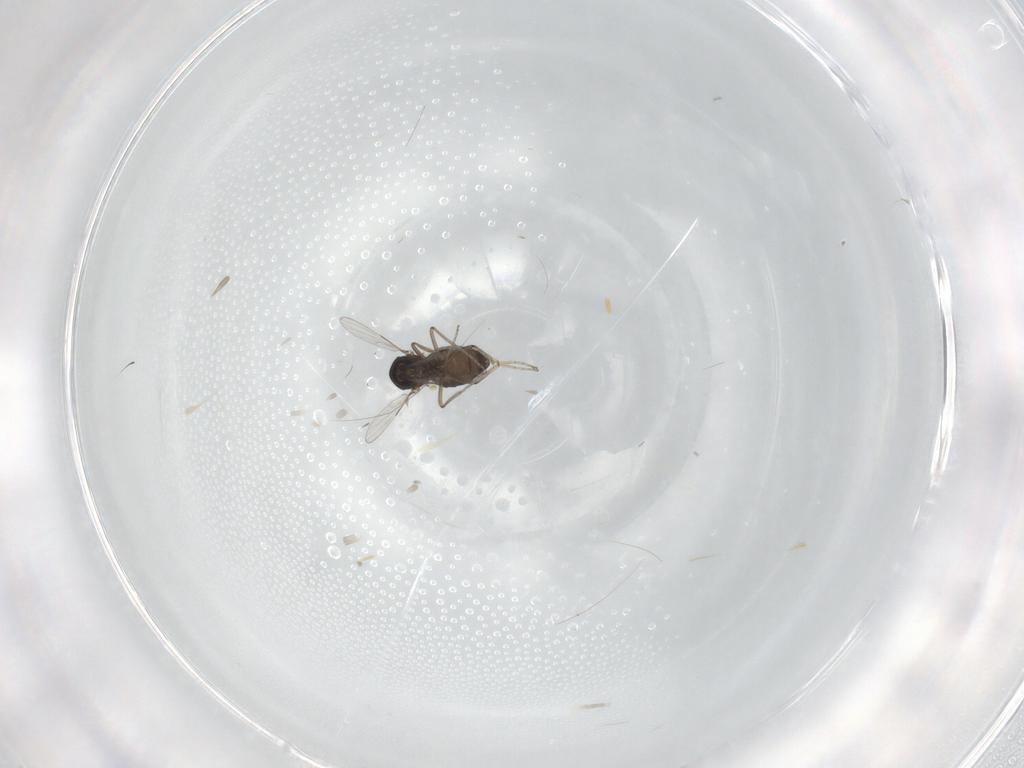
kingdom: Animalia
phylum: Arthropoda
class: Insecta
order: Diptera
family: Ceratopogonidae
